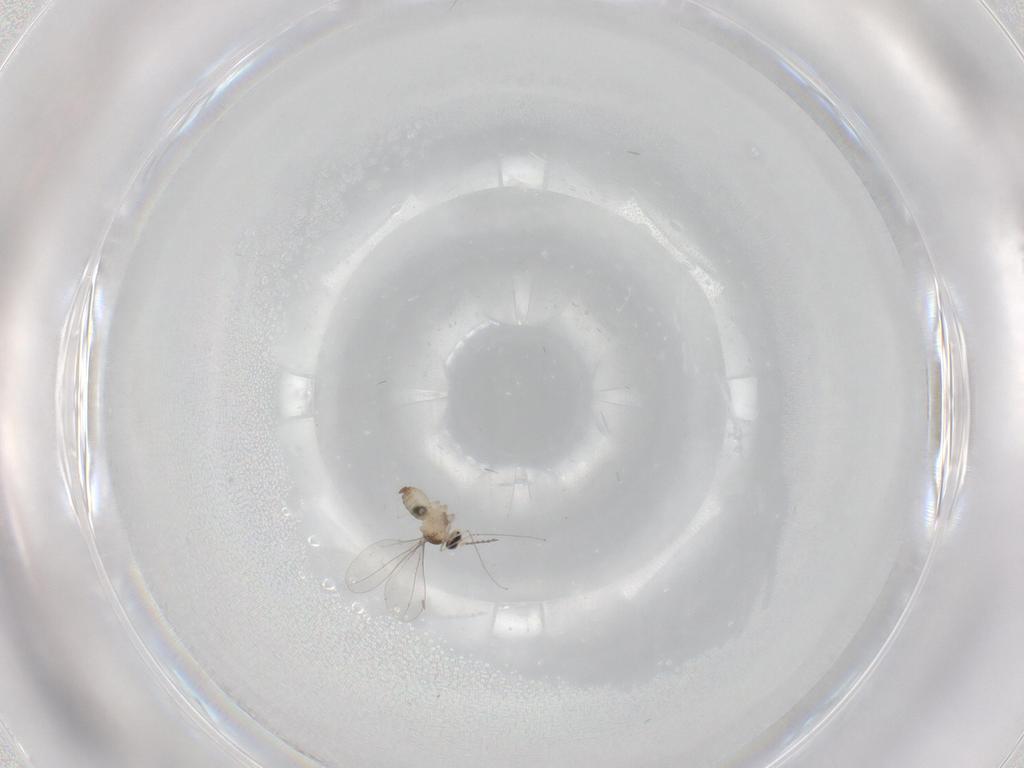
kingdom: Animalia
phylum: Arthropoda
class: Insecta
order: Diptera
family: Cecidomyiidae
